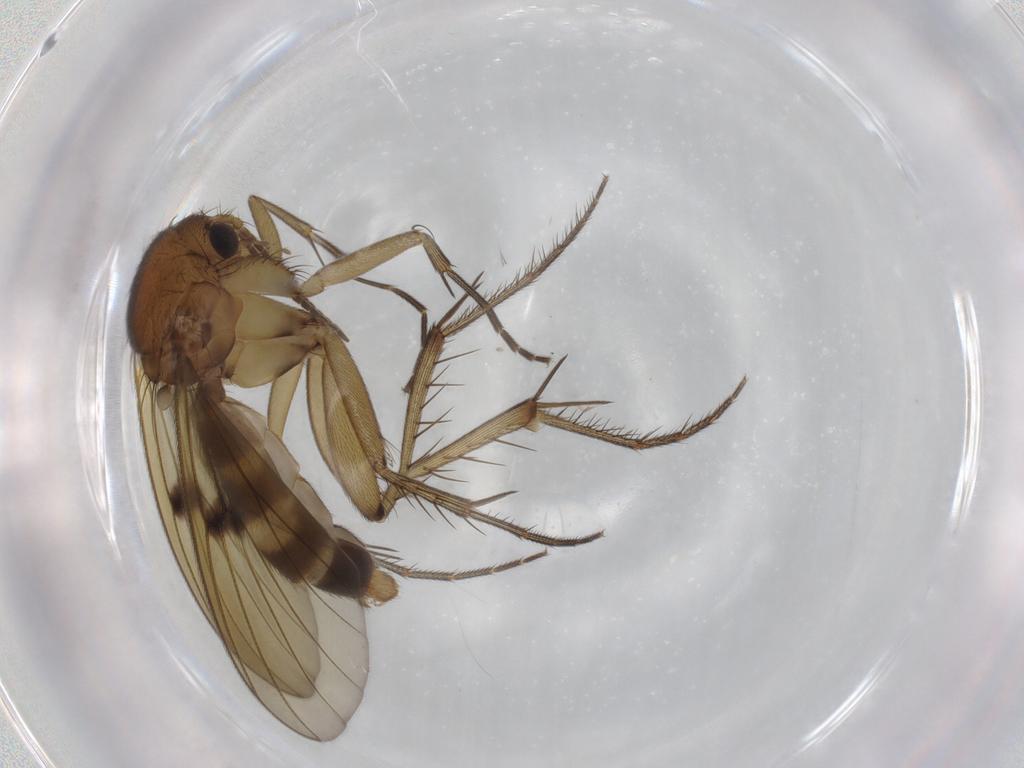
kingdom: Animalia
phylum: Arthropoda
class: Insecta
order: Diptera
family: Mycetophilidae
